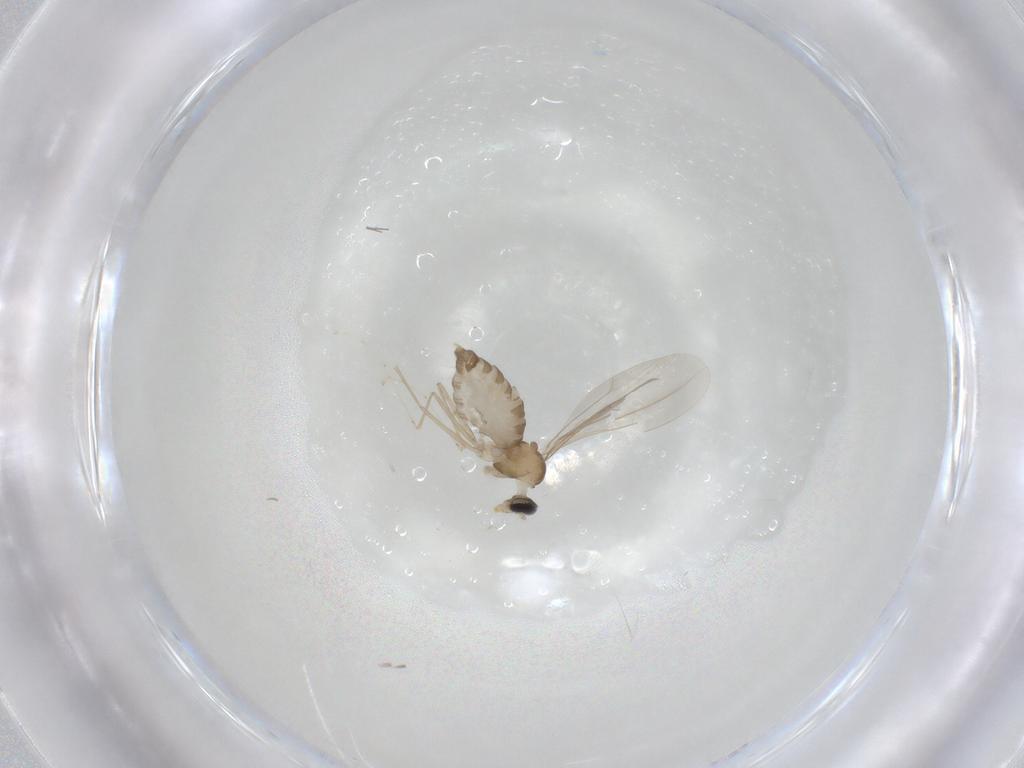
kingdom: Animalia
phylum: Arthropoda
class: Insecta
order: Diptera
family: Cecidomyiidae
